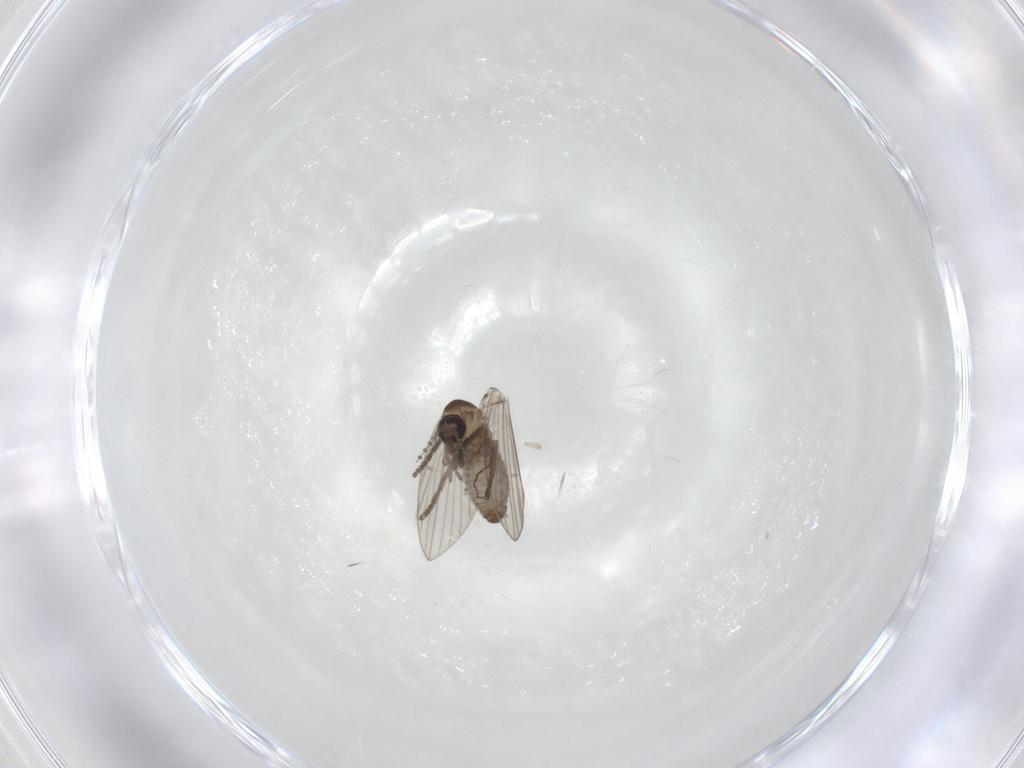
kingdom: Animalia
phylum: Arthropoda
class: Insecta
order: Diptera
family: Psychodidae
